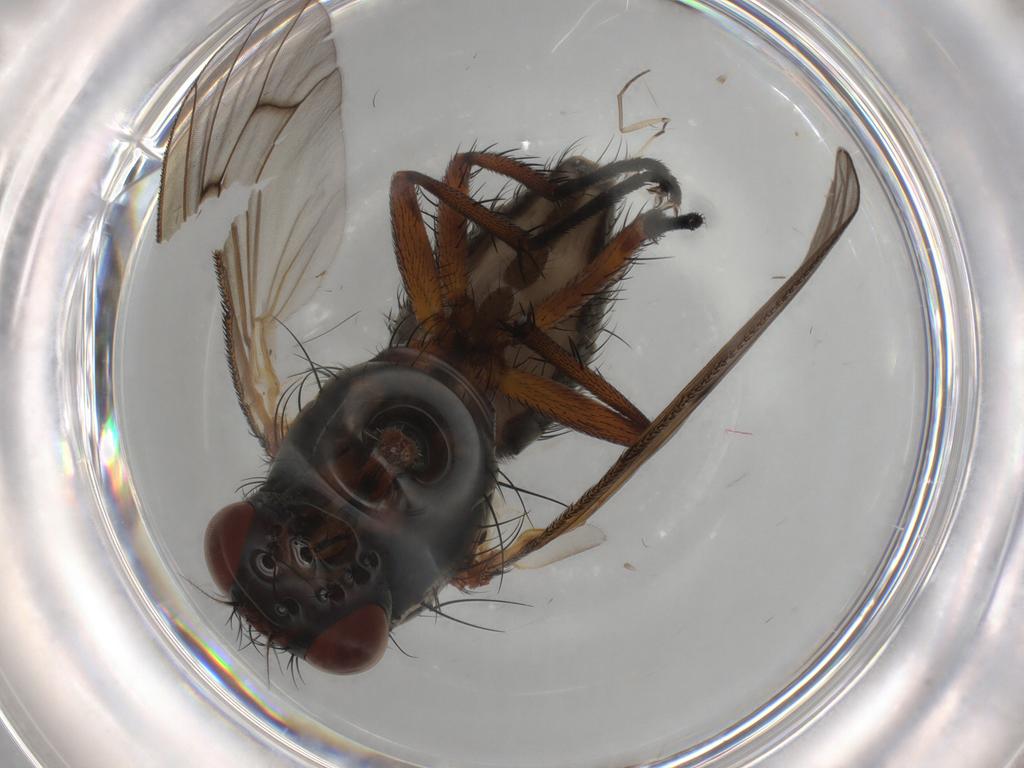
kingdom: Animalia
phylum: Arthropoda
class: Insecta
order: Diptera
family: Anthomyiidae
